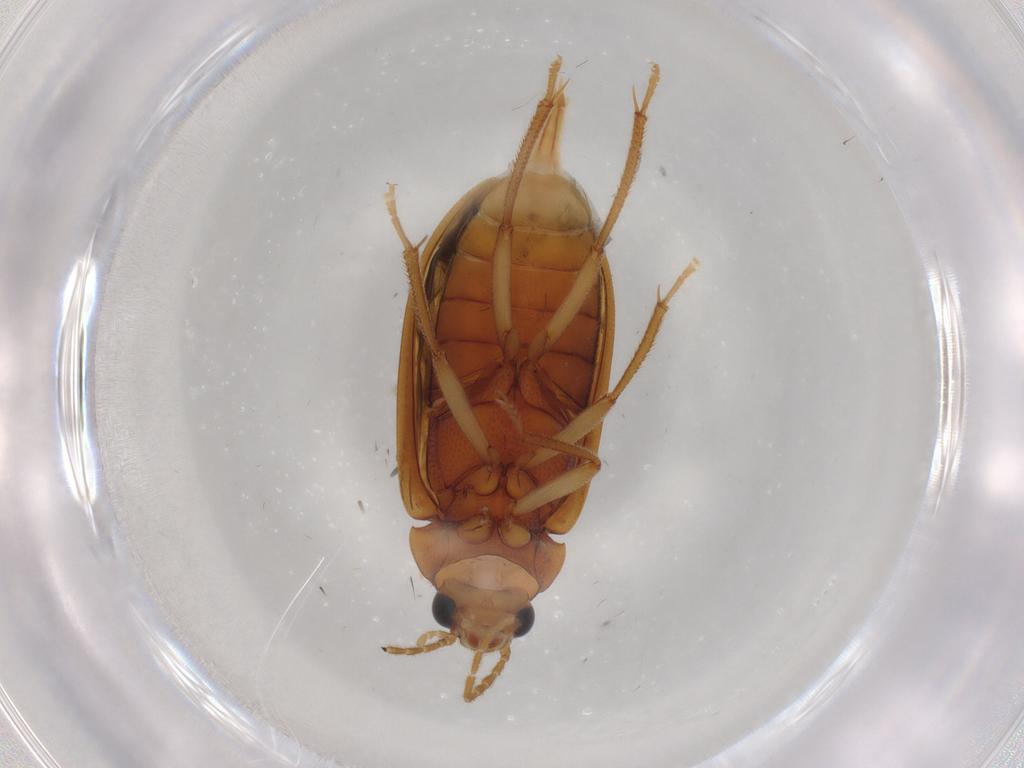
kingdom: Animalia
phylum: Arthropoda
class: Insecta
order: Coleoptera
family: Ptilodactylidae
